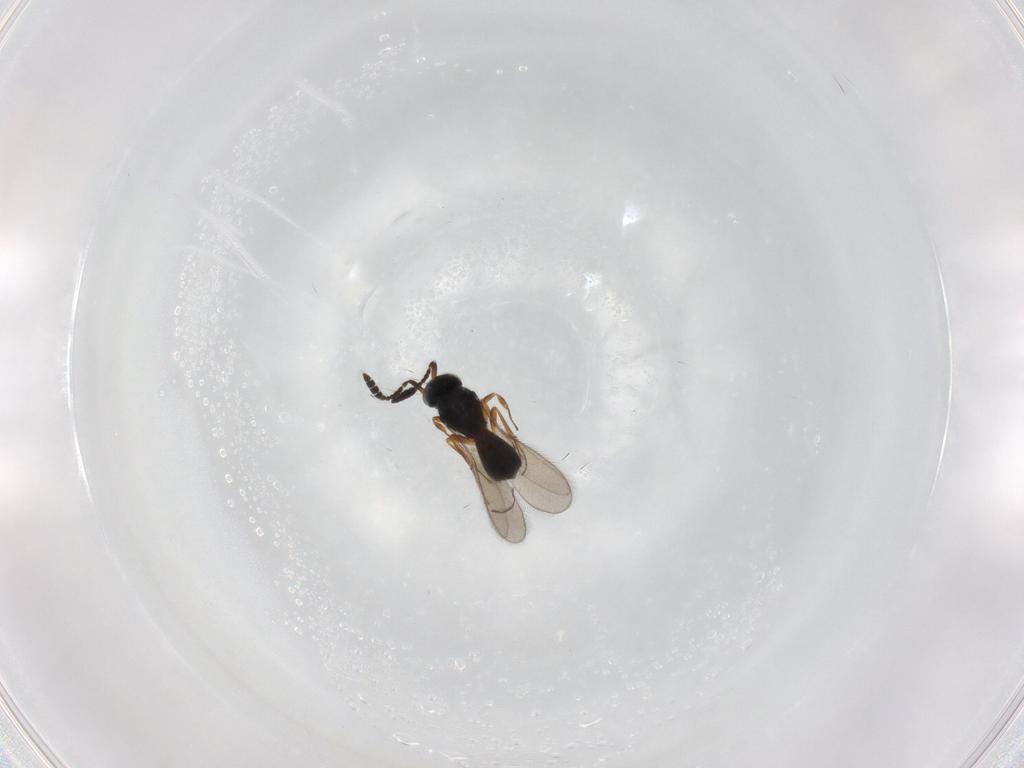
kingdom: Animalia
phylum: Arthropoda
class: Insecta
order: Hymenoptera
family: Scelionidae
